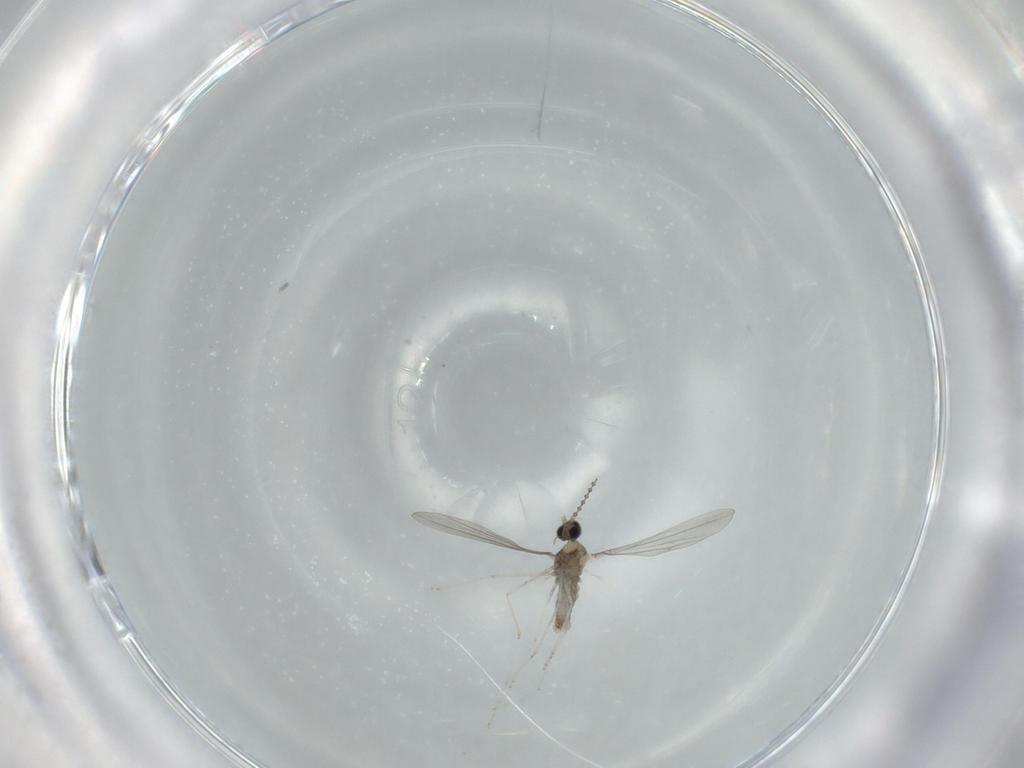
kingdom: Animalia
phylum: Arthropoda
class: Insecta
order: Diptera
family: Cecidomyiidae
